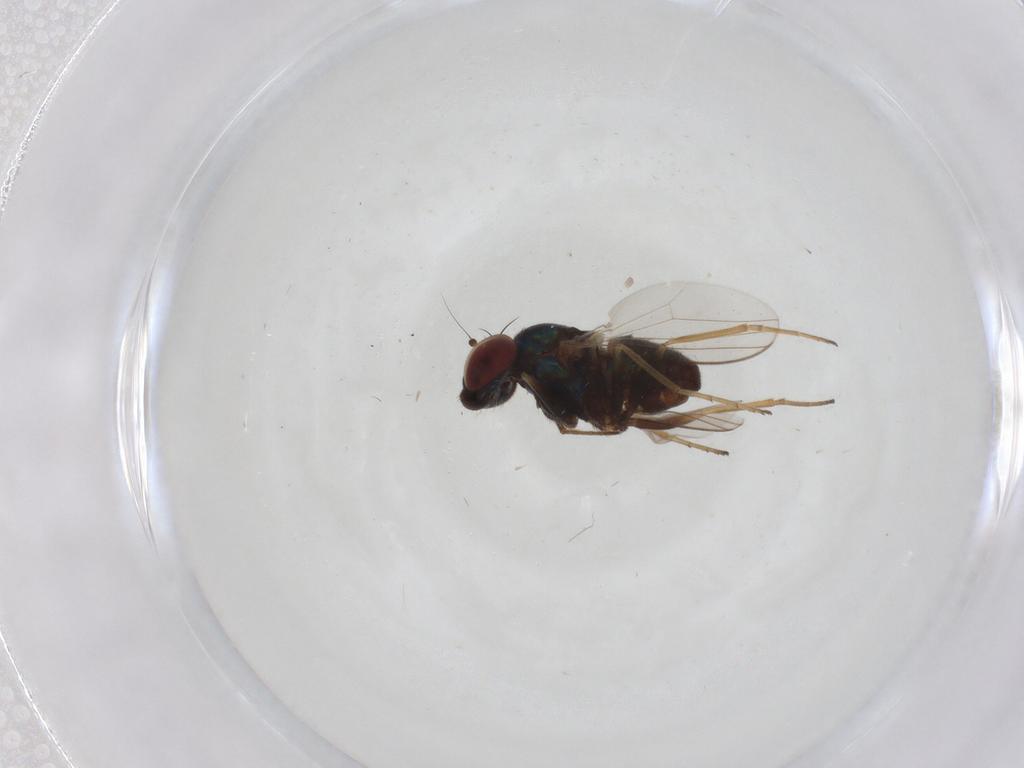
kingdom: Animalia
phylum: Arthropoda
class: Insecta
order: Diptera
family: Dolichopodidae
